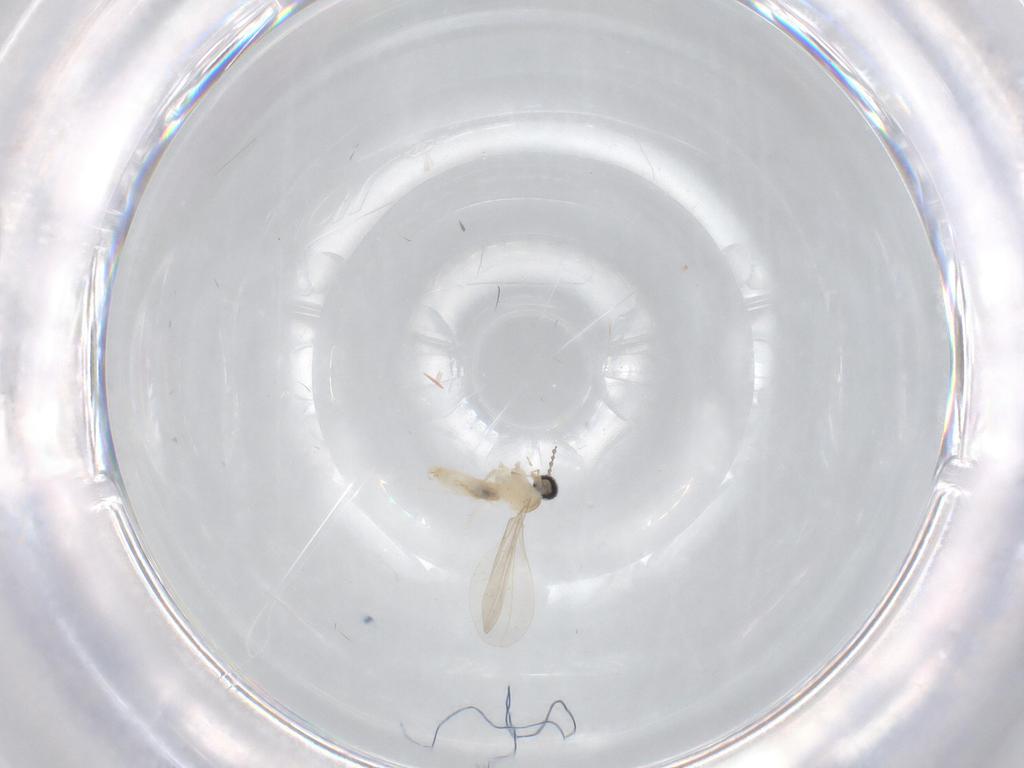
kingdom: Animalia
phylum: Arthropoda
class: Insecta
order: Diptera
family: Cecidomyiidae
